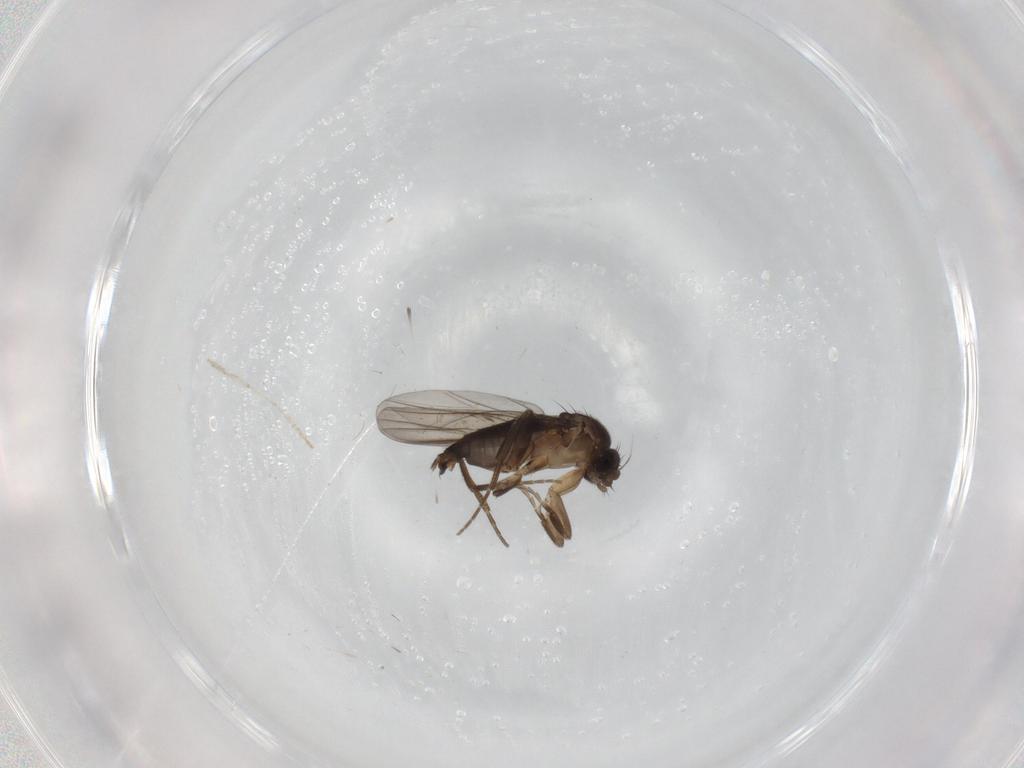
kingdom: Animalia
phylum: Arthropoda
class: Insecta
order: Diptera
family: Phoridae
